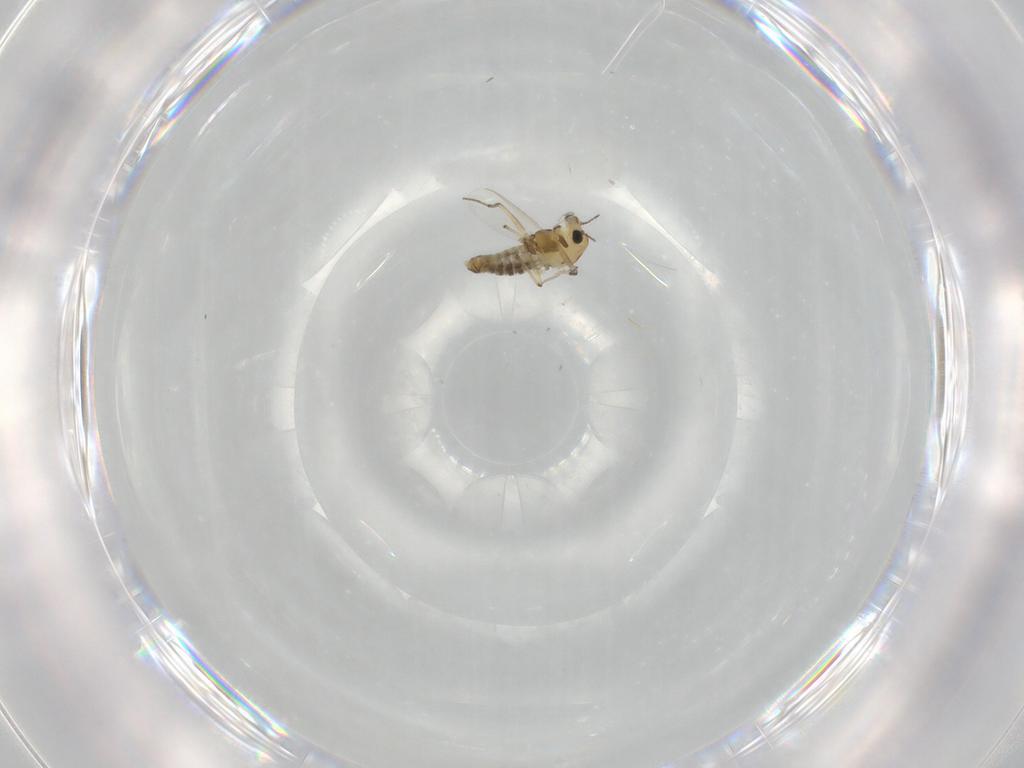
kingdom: Animalia
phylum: Arthropoda
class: Insecta
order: Diptera
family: Chironomidae
